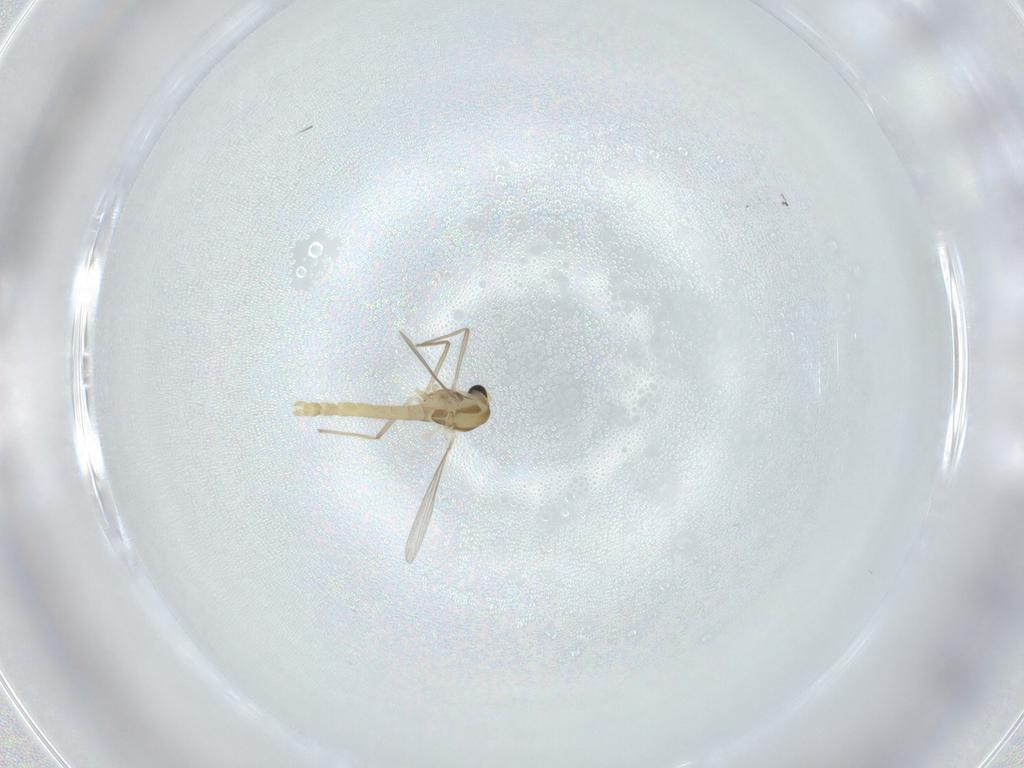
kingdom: Animalia
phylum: Arthropoda
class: Insecta
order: Diptera
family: Phoridae
